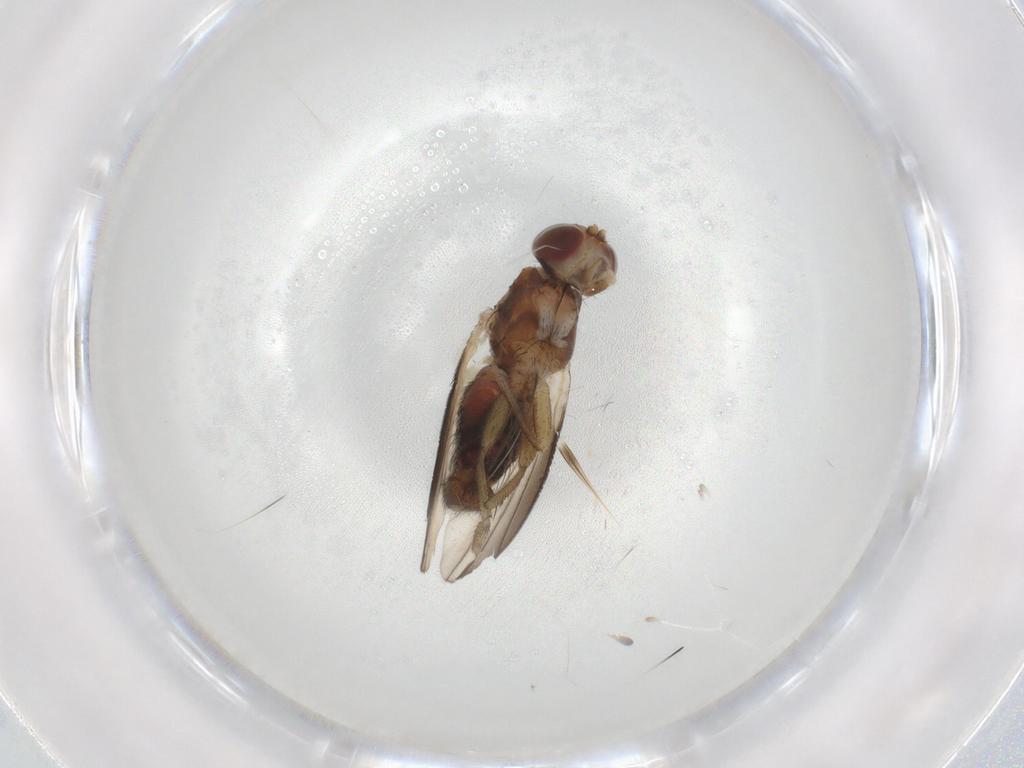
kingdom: Animalia
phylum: Arthropoda
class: Insecta
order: Diptera
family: Heleomyzidae
